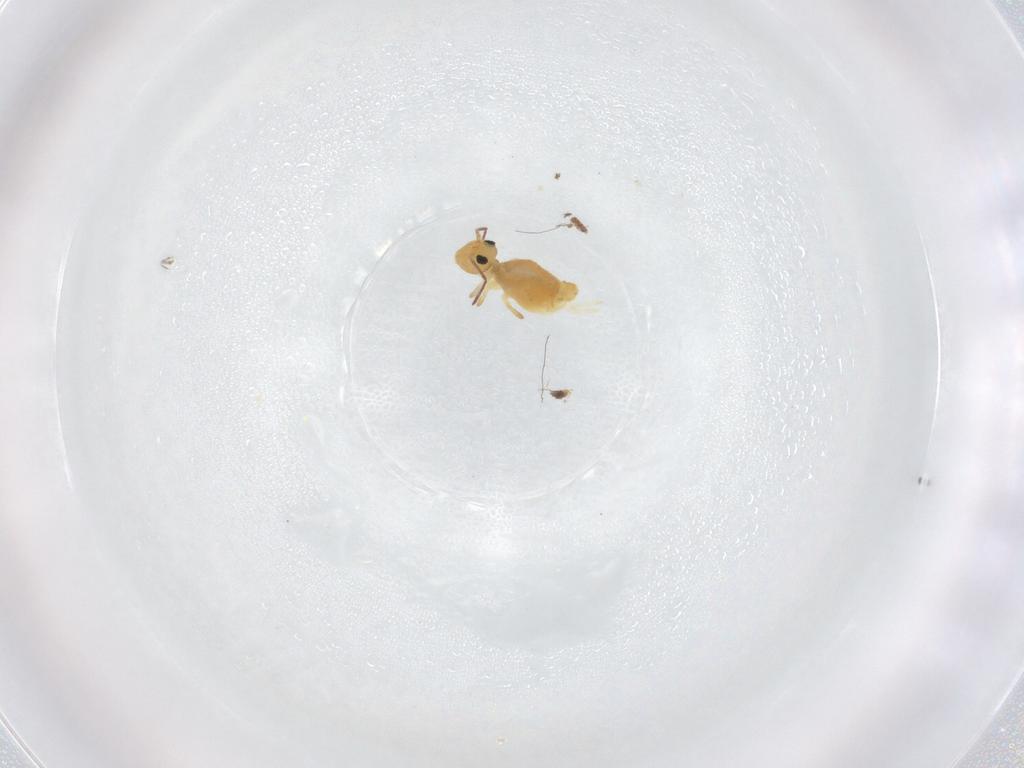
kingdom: Animalia
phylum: Arthropoda
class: Collembola
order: Symphypleona
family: Bourletiellidae
